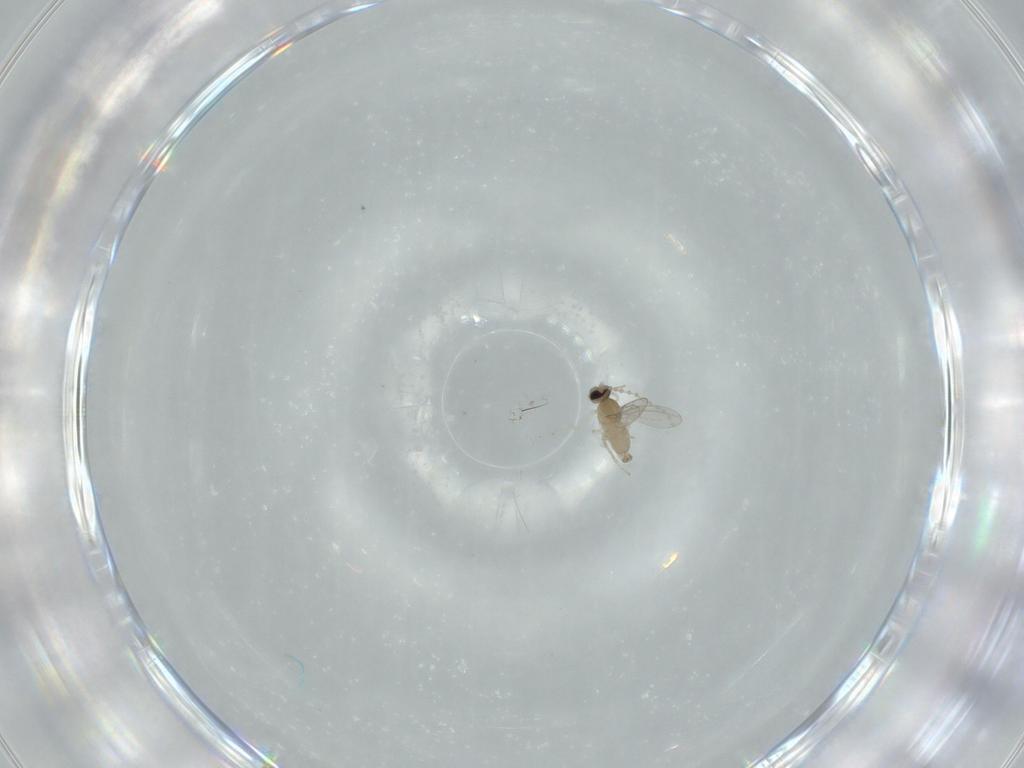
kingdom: Animalia
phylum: Arthropoda
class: Insecta
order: Diptera
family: Cecidomyiidae
